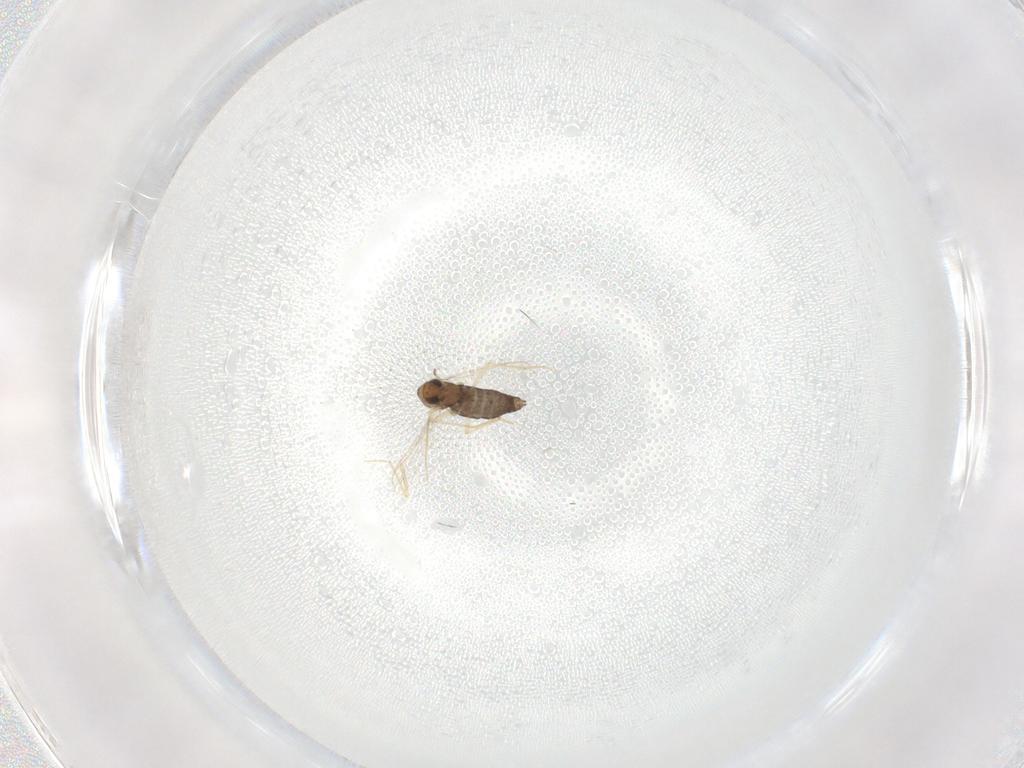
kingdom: Animalia
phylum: Arthropoda
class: Insecta
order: Diptera
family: Chironomidae
